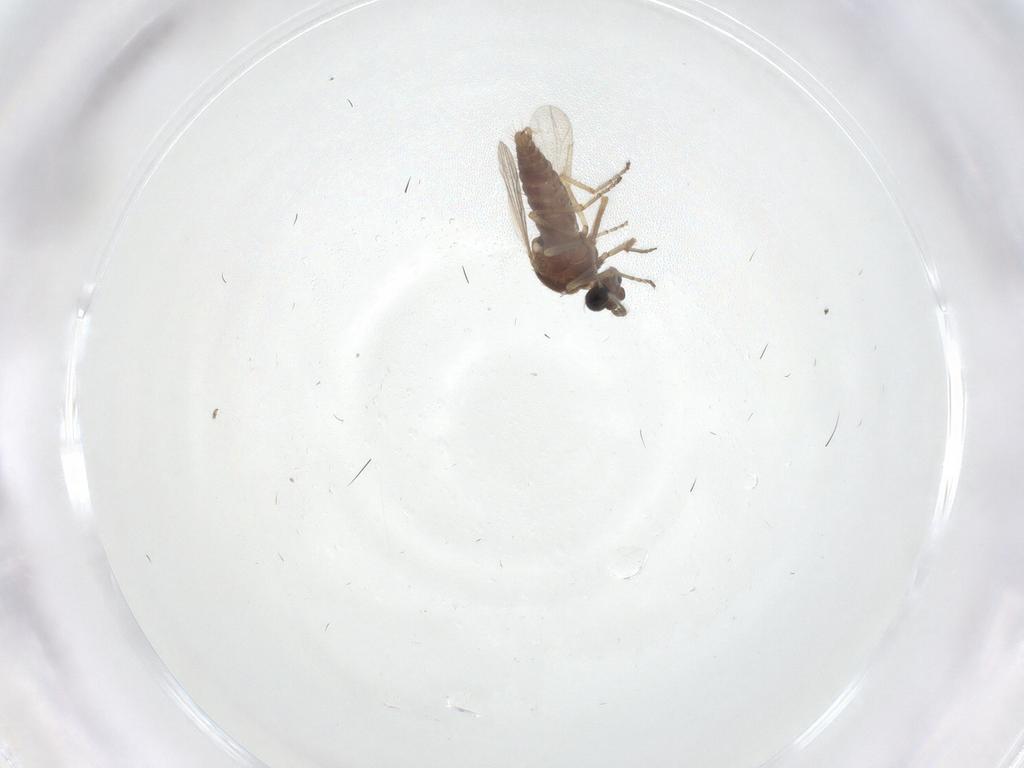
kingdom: Animalia
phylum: Arthropoda
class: Insecta
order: Diptera
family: Ceratopogonidae
